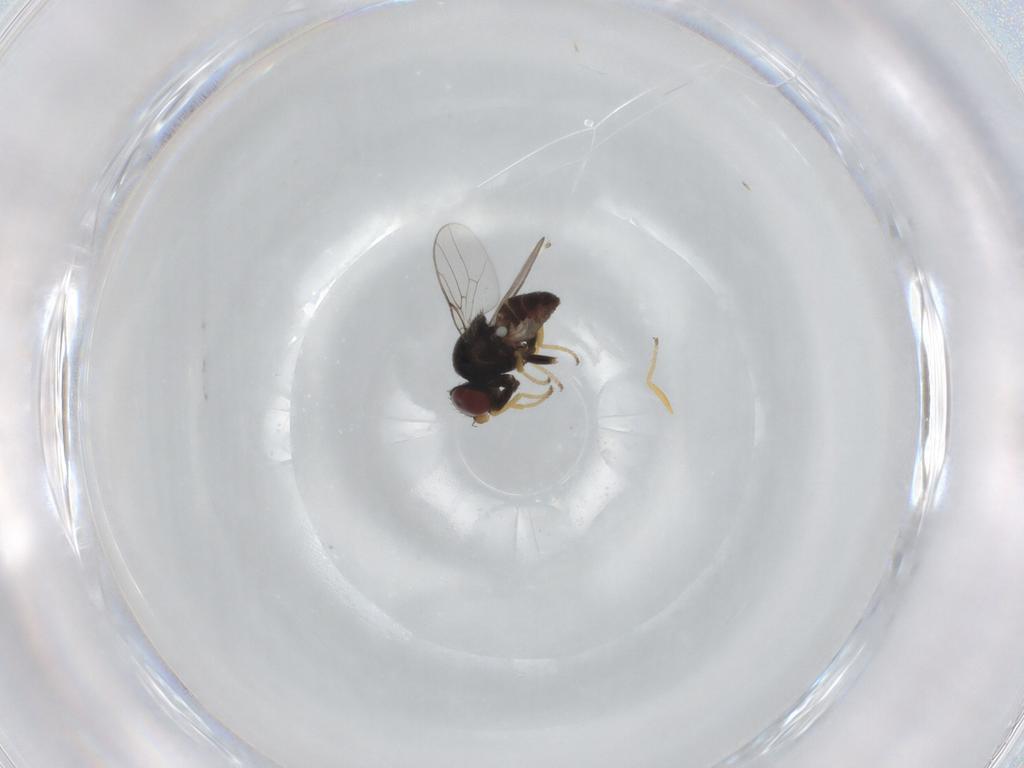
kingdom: Animalia
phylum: Arthropoda
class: Insecta
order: Diptera
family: Chloropidae
